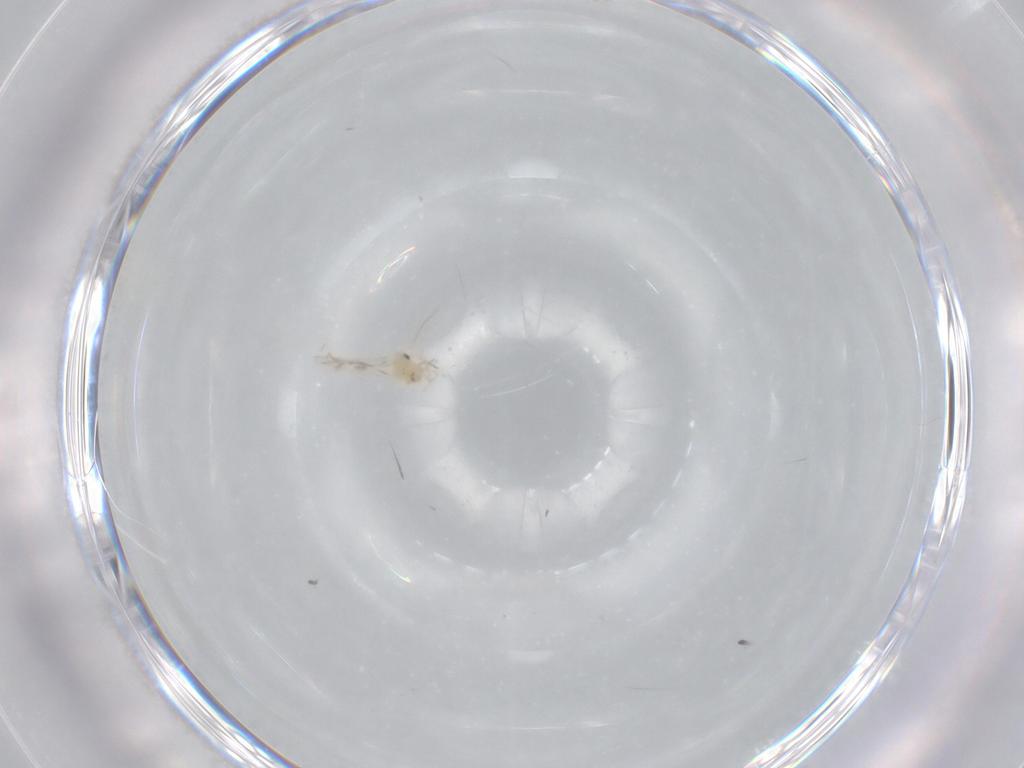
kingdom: Animalia
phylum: Arthropoda
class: Insecta
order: Hemiptera
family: Aleyrodidae
